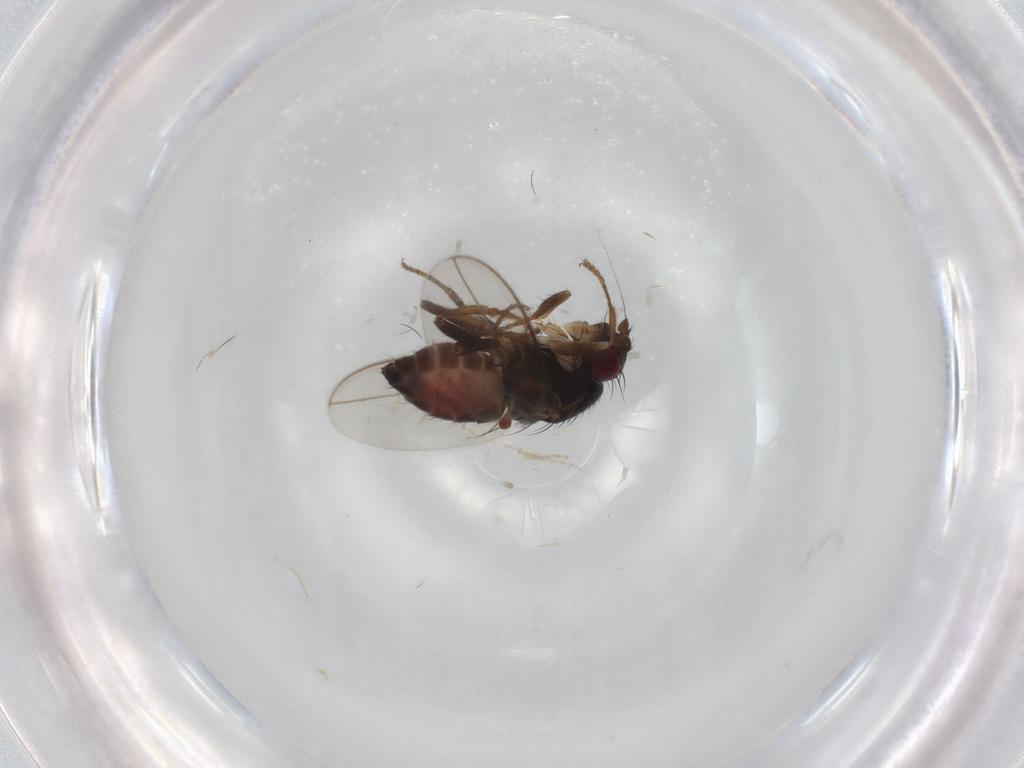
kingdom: Animalia
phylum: Arthropoda
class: Insecta
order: Diptera
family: Sphaeroceridae
